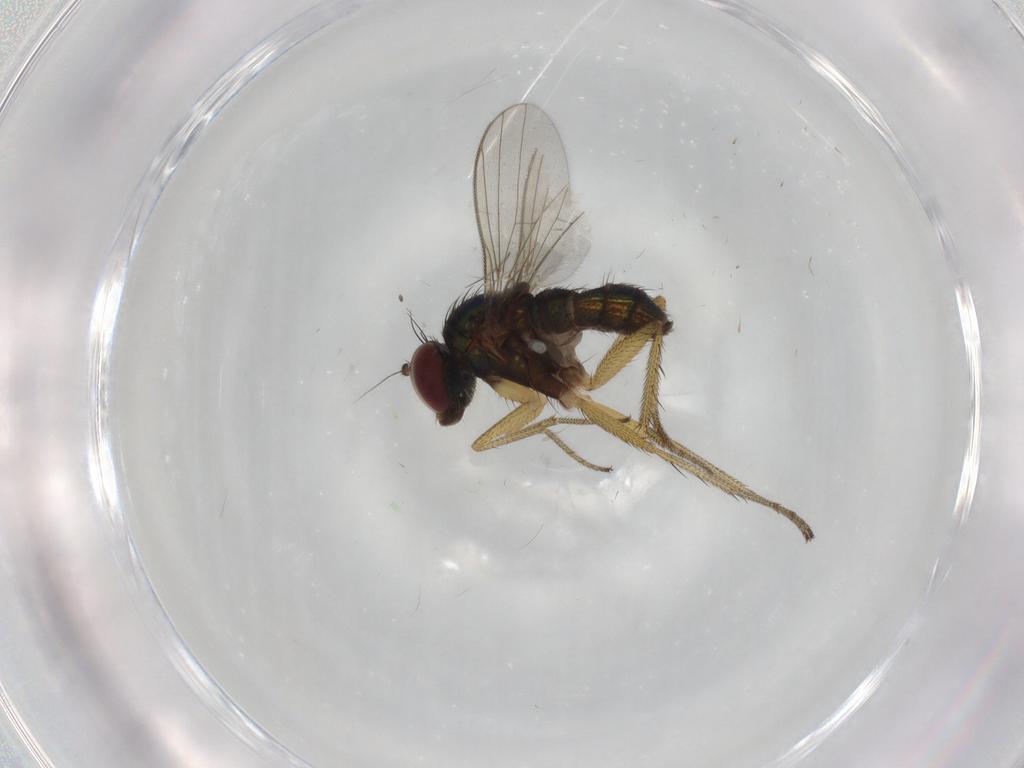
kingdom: Animalia
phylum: Arthropoda
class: Insecta
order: Diptera
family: Dolichopodidae
